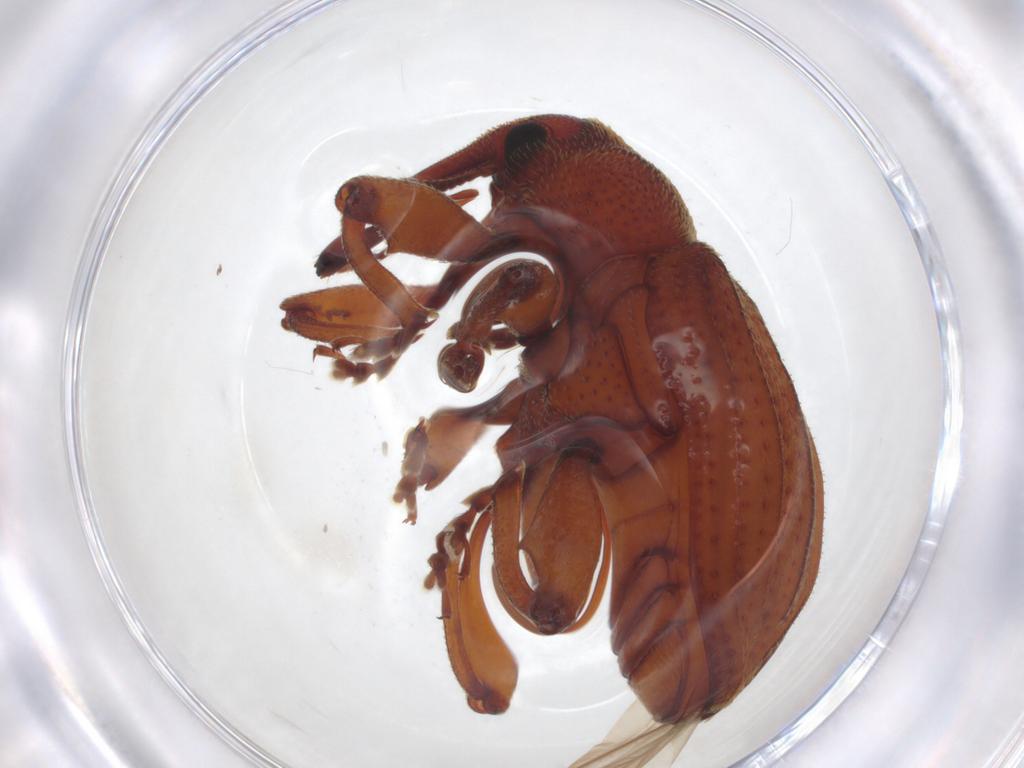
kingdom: Animalia
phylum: Arthropoda
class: Insecta
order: Coleoptera
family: Curculionidae
